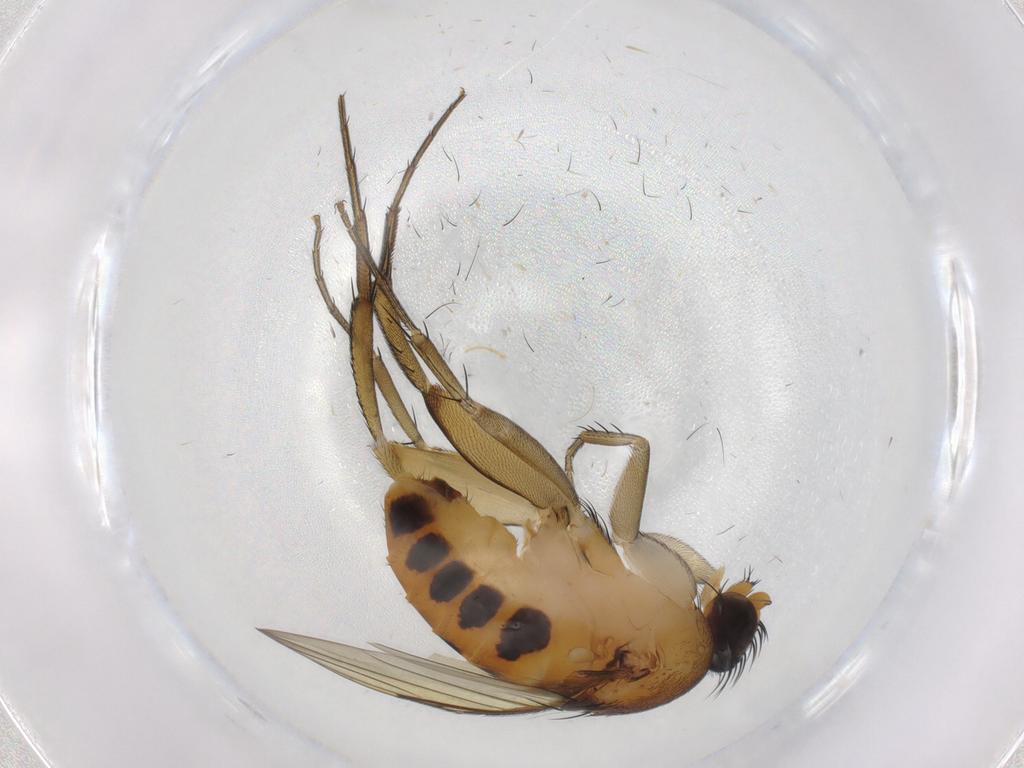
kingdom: Animalia
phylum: Arthropoda
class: Insecta
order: Diptera
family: Phoridae
